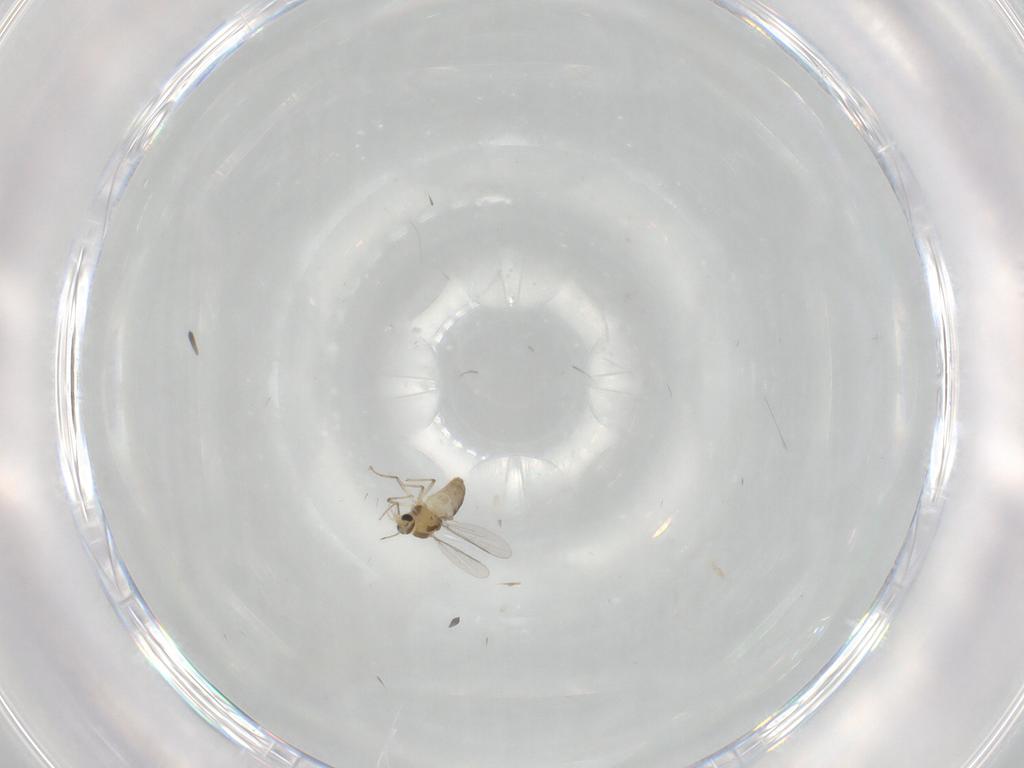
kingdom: Animalia
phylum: Arthropoda
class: Insecta
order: Diptera
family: Chironomidae
